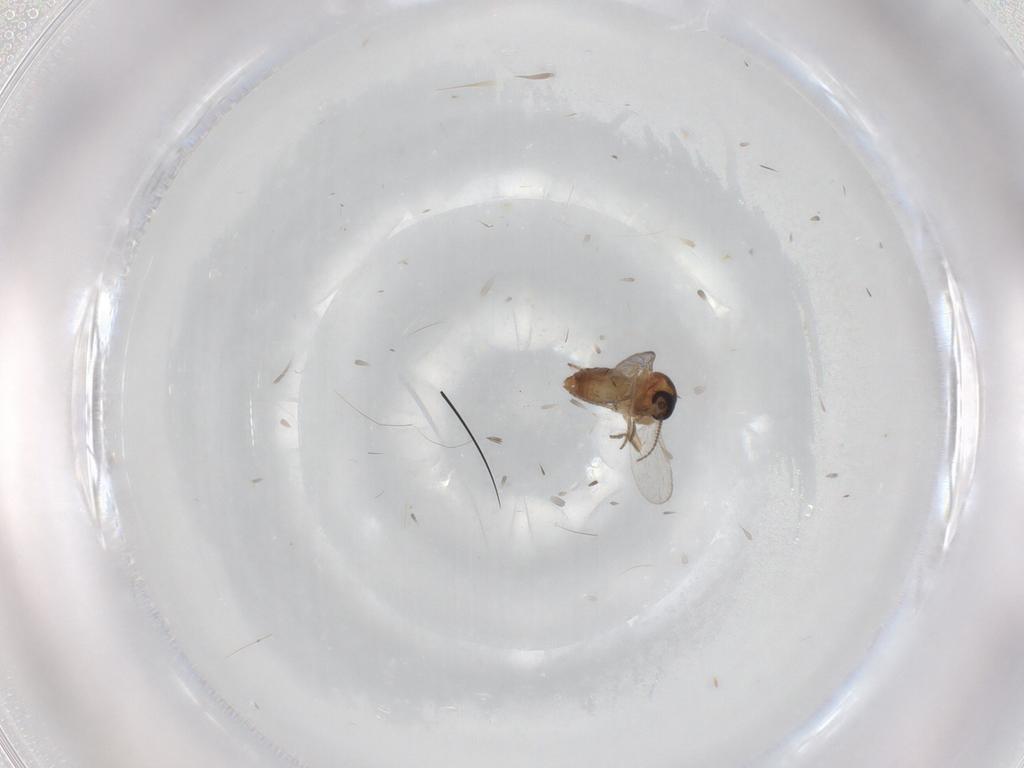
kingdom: Animalia
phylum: Arthropoda
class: Insecta
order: Diptera
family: Ceratopogonidae
